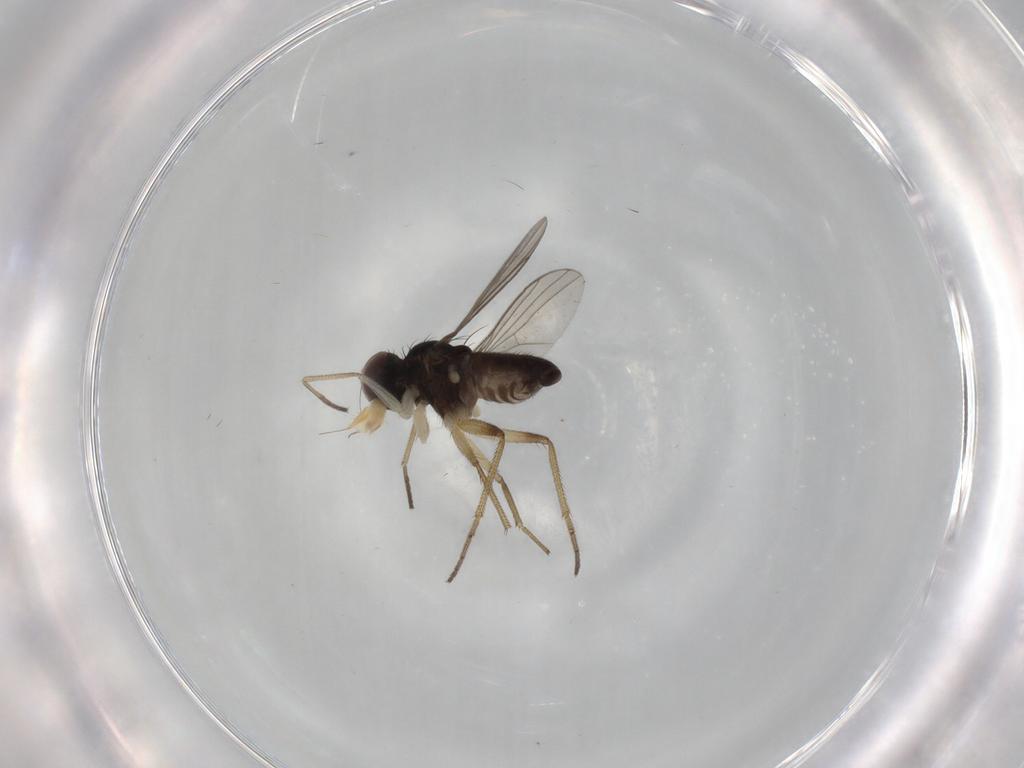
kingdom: Animalia
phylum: Arthropoda
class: Insecta
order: Diptera
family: Dolichopodidae
